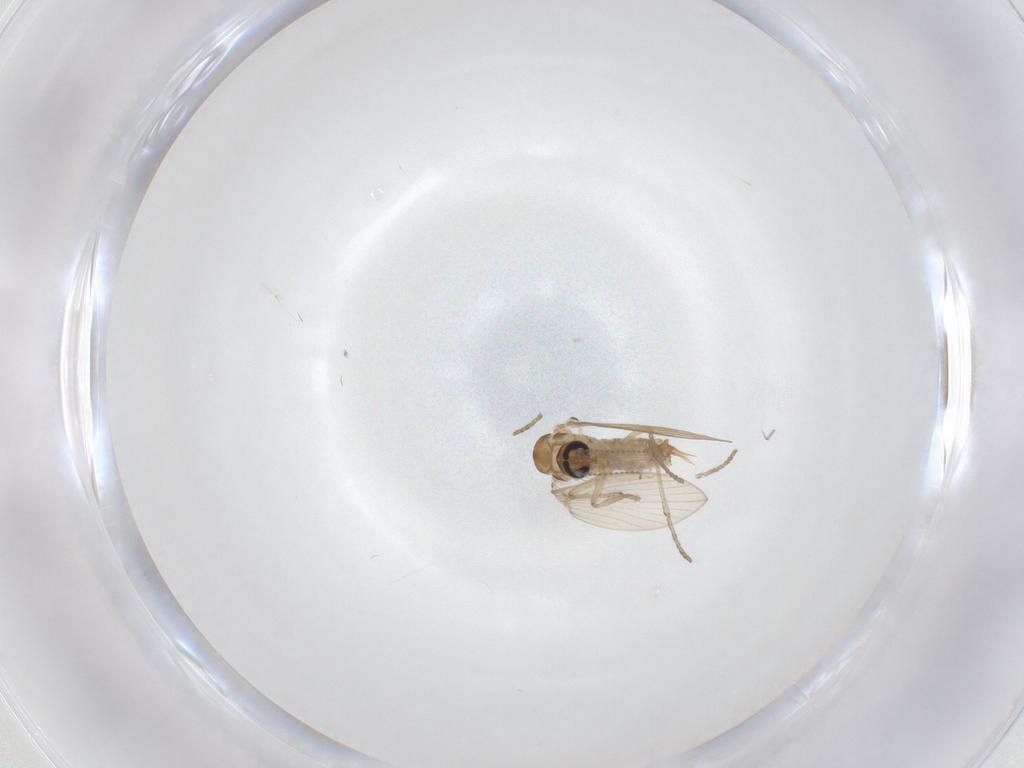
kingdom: Animalia
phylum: Arthropoda
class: Insecta
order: Diptera
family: Psychodidae
